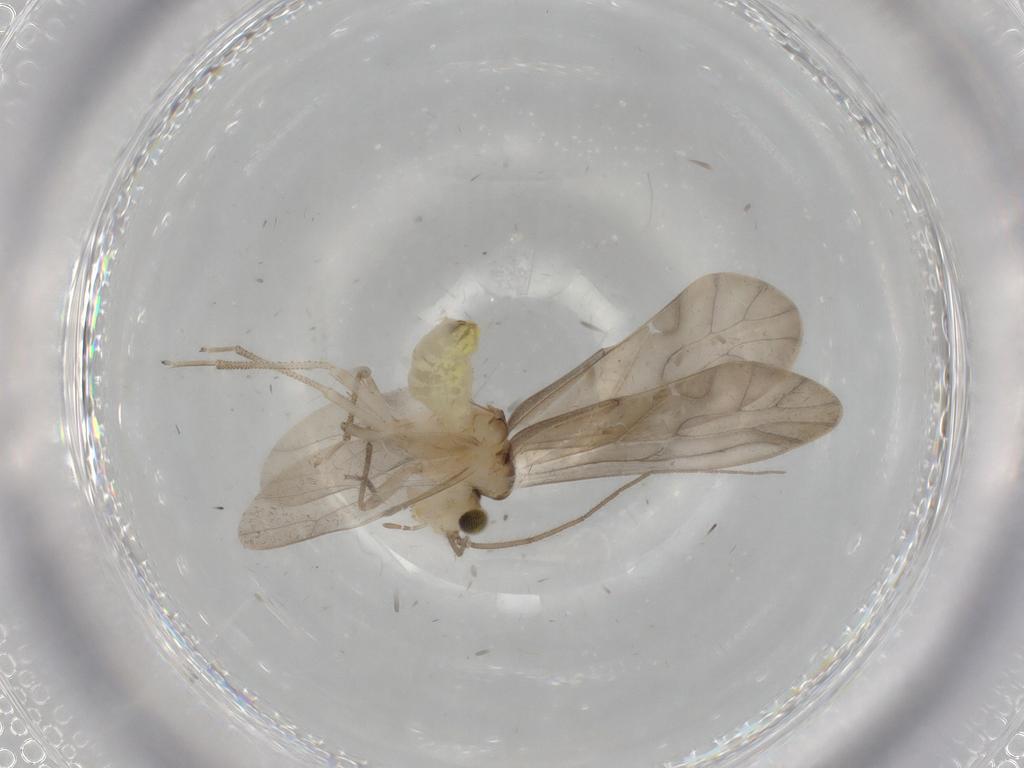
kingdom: Animalia
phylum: Arthropoda
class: Insecta
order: Psocodea
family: Caeciliusidae
